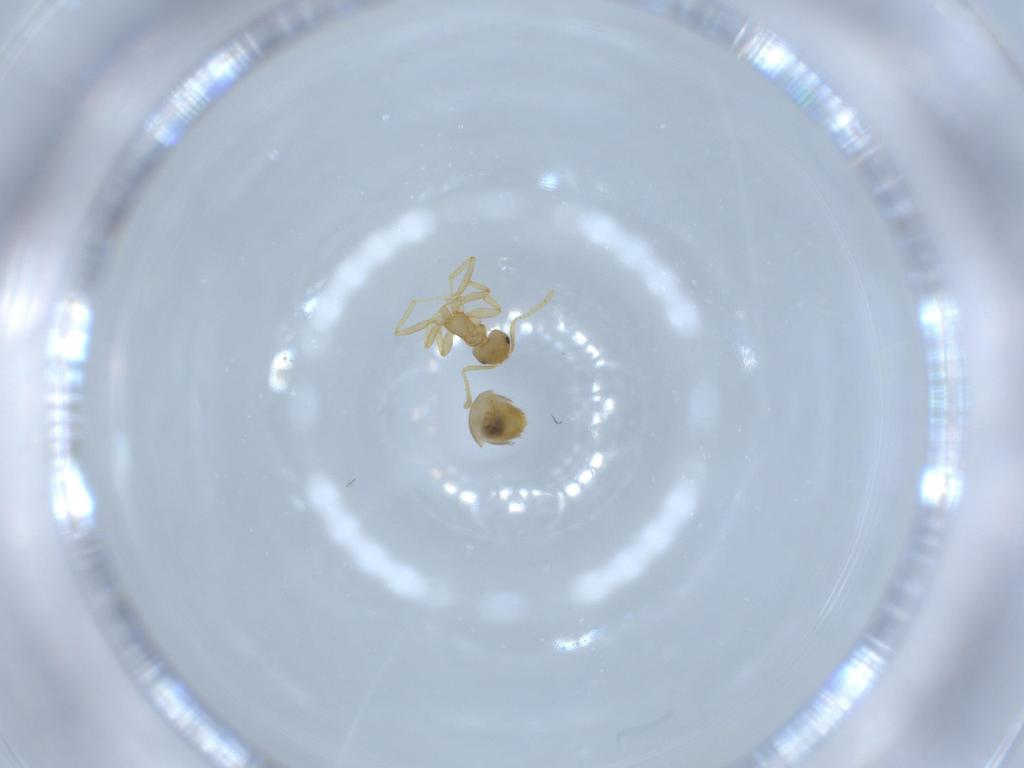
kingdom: Animalia
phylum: Arthropoda
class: Insecta
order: Hymenoptera
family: Formicidae
